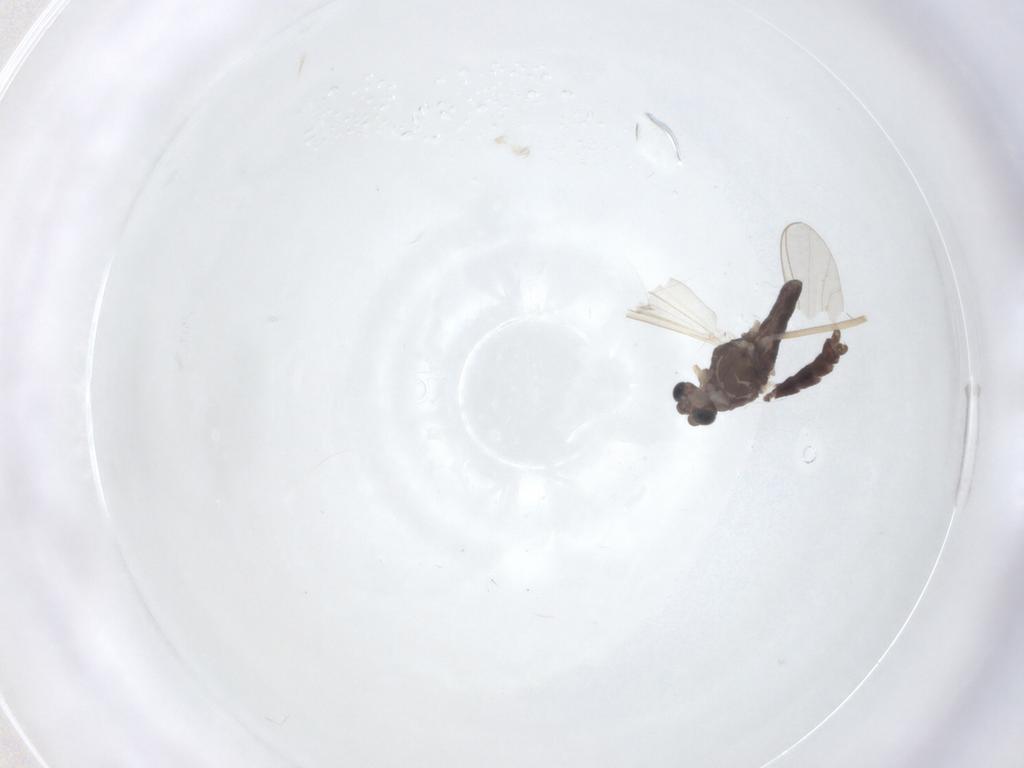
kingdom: Animalia
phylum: Arthropoda
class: Insecta
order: Diptera
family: Chironomidae
